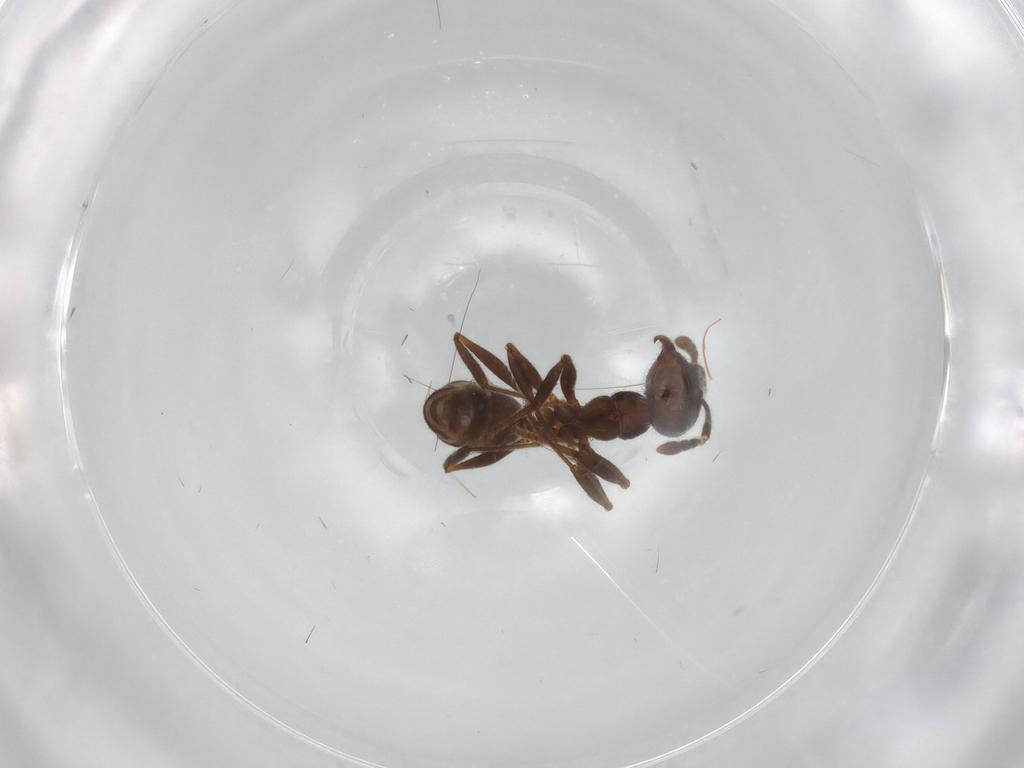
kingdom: Animalia
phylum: Arthropoda
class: Insecta
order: Hymenoptera
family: Formicidae
